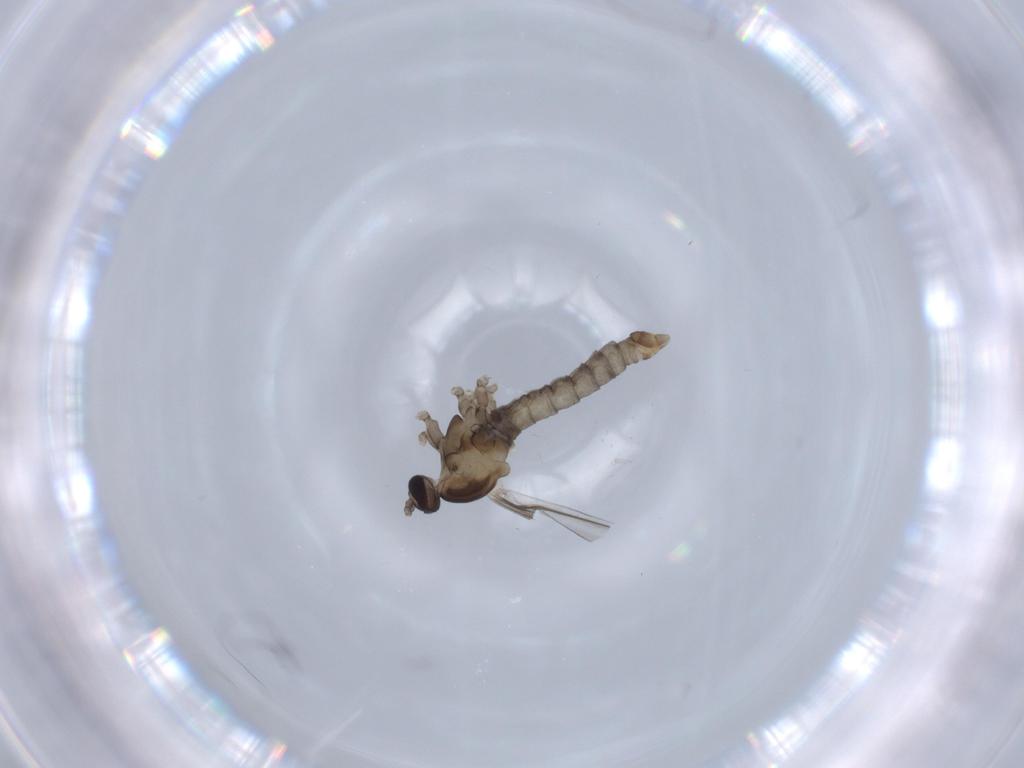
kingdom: Animalia
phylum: Arthropoda
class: Insecta
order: Diptera
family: Cecidomyiidae
